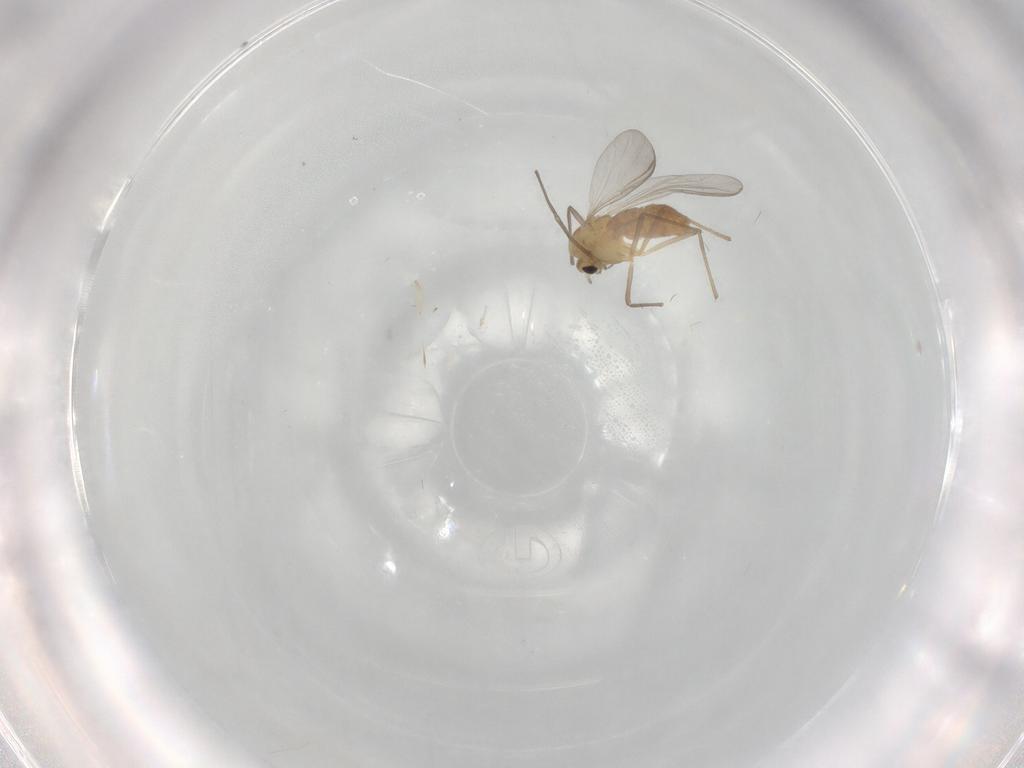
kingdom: Animalia
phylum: Arthropoda
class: Insecta
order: Diptera
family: Chironomidae
